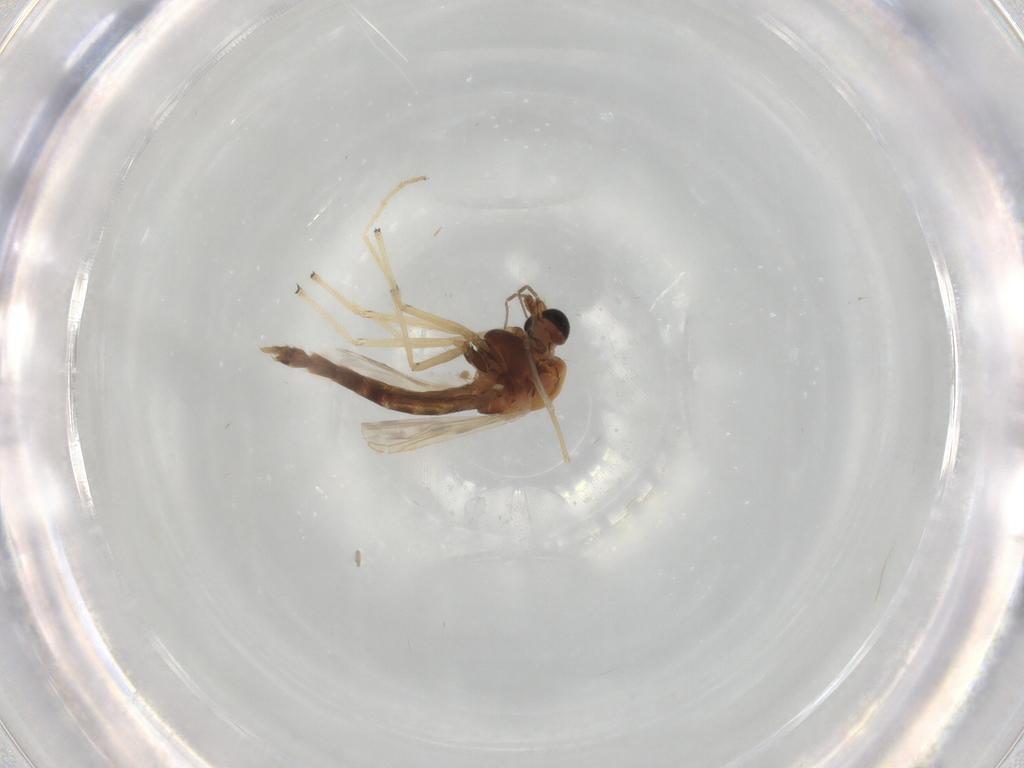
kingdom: Animalia
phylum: Arthropoda
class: Insecta
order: Diptera
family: Chironomidae
